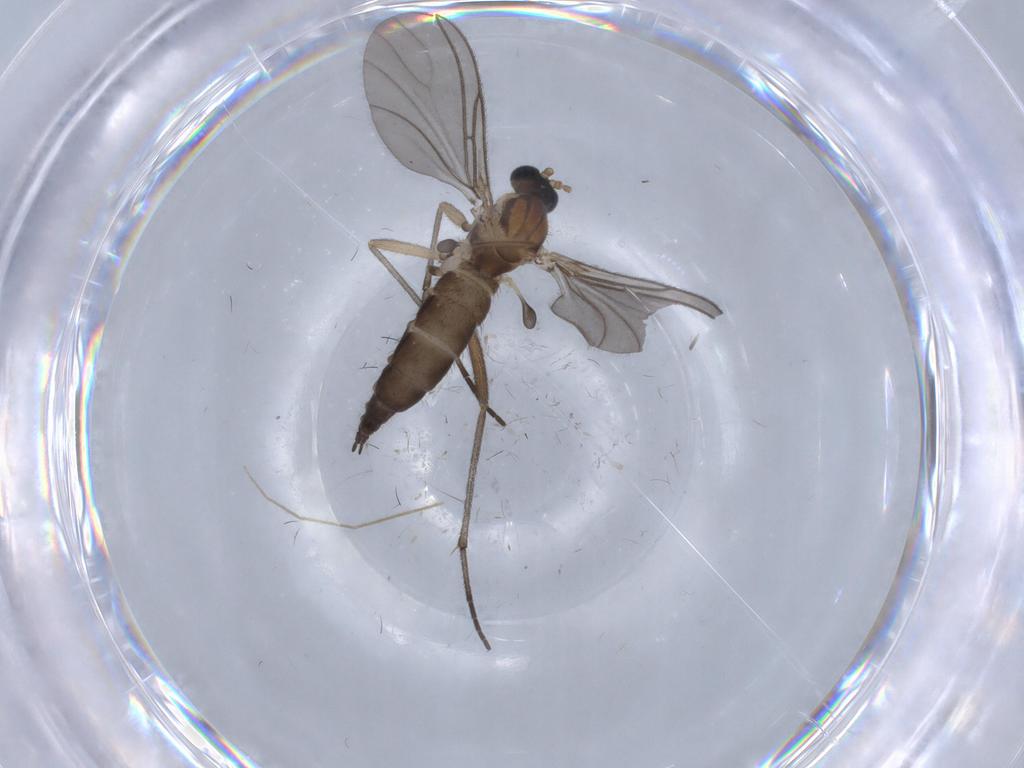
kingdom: Animalia
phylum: Arthropoda
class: Insecta
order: Diptera
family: Sciaridae
